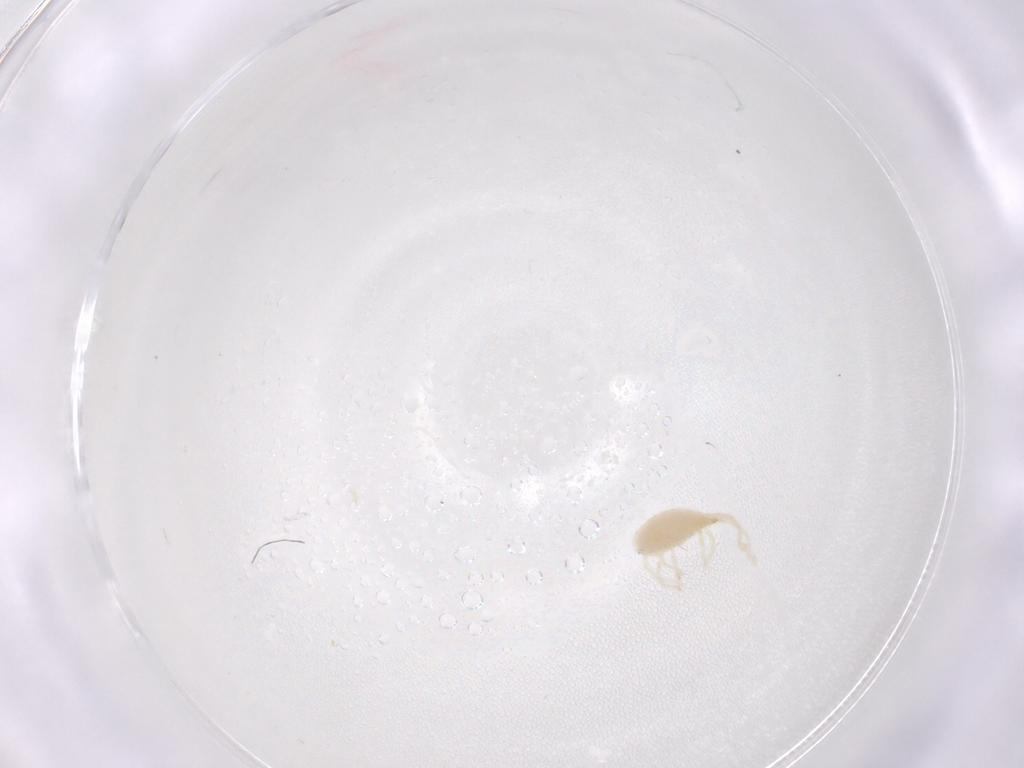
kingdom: Animalia
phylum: Arthropoda
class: Arachnida
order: Trombidiformes
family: Erythraeidae
